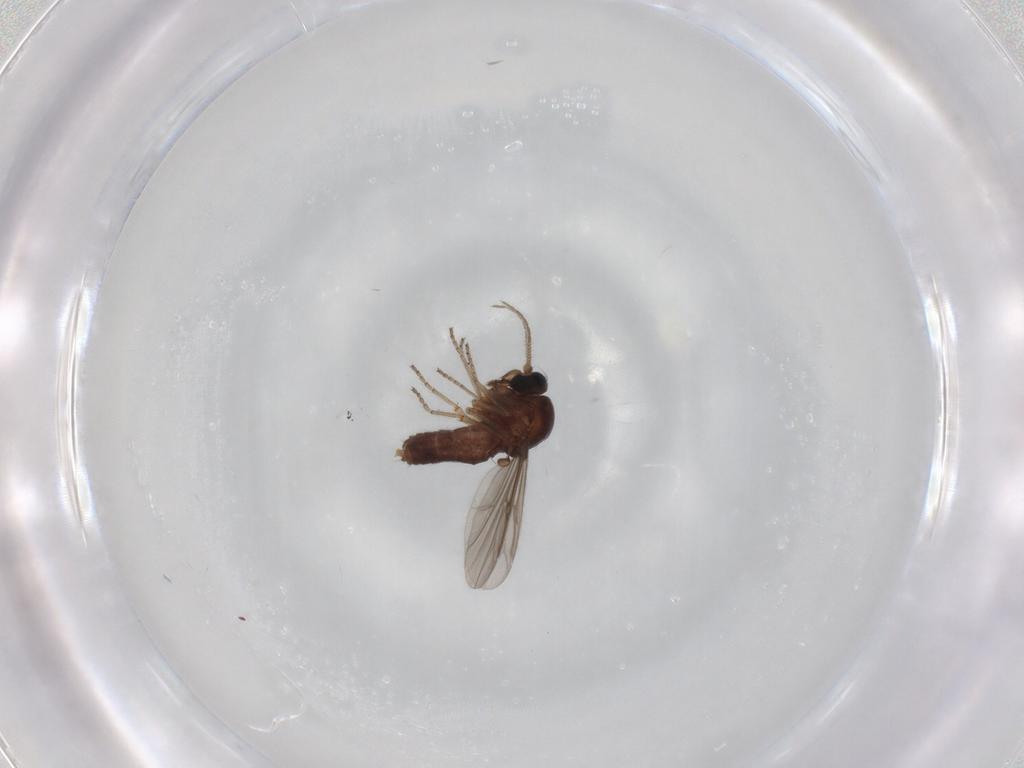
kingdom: Animalia
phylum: Arthropoda
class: Insecta
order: Diptera
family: Ceratopogonidae
